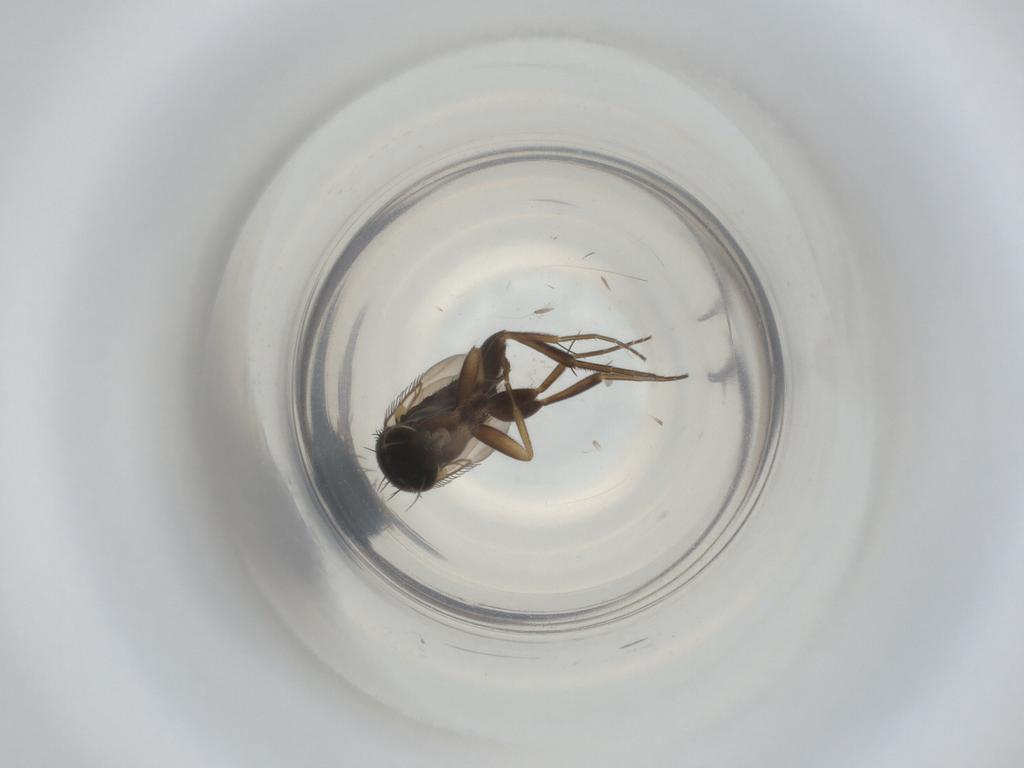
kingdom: Animalia
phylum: Arthropoda
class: Insecta
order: Diptera
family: Phoridae
